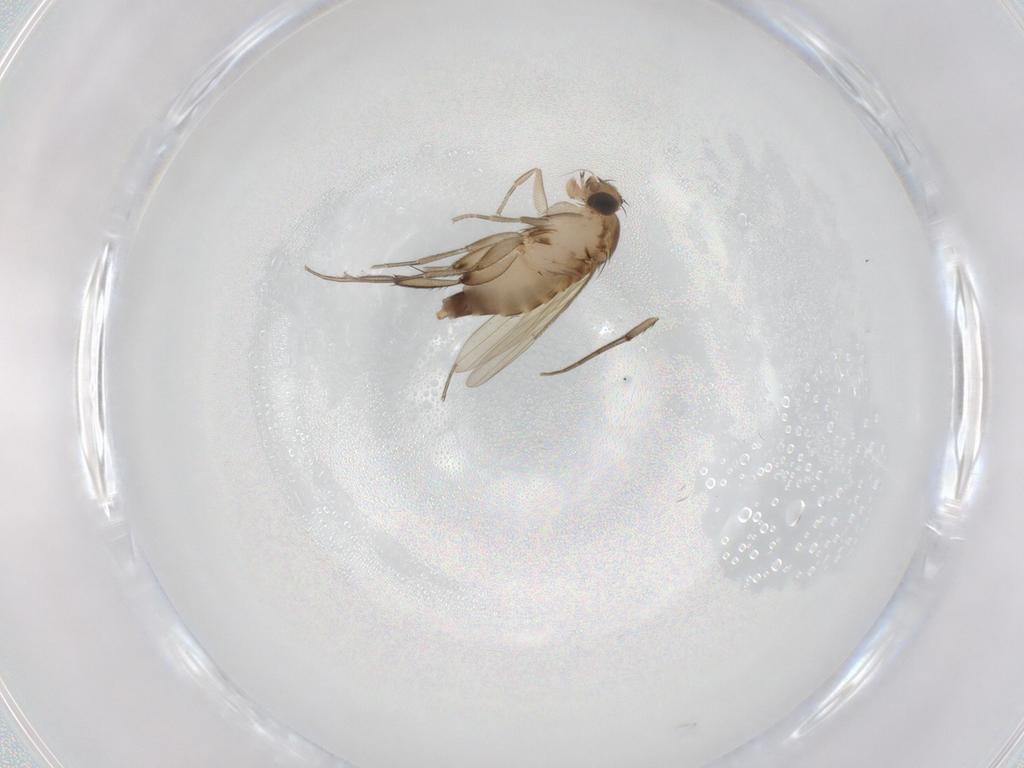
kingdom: Animalia
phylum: Arthropoda
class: Insecta
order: Diptera
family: Phoridae
